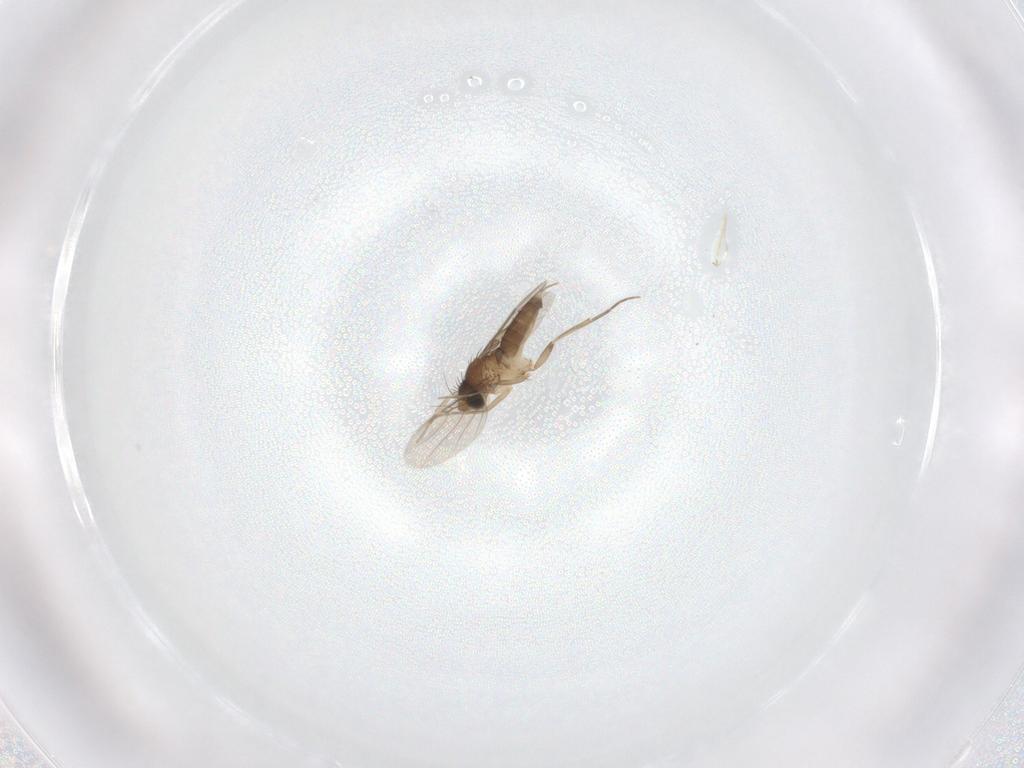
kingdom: Animalia
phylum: Arthropoda
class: Insecta
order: Diptera
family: Phoridae
